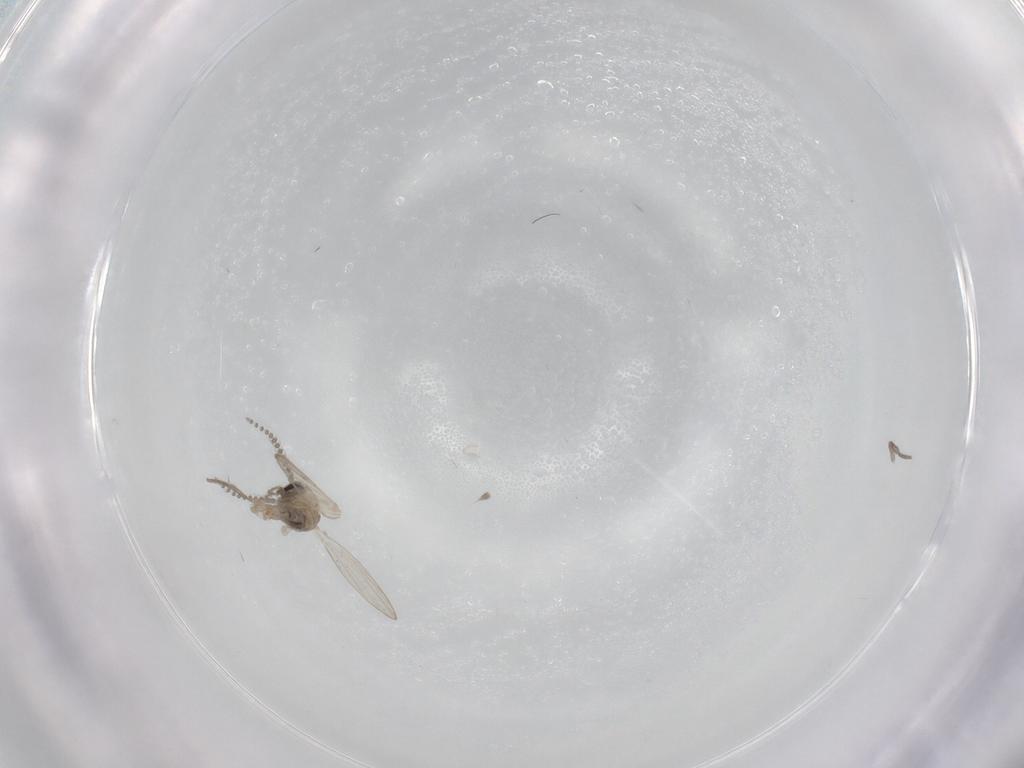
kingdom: Animalia
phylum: Arthropoda
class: Insecta
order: Diptera
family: Psychodidae
